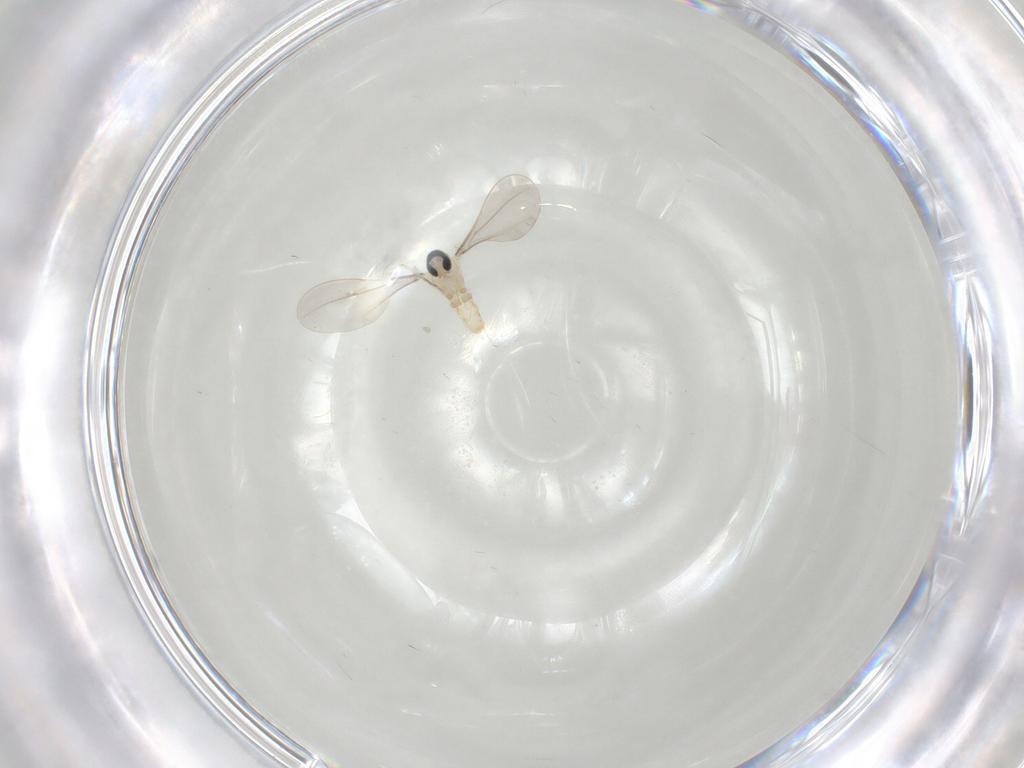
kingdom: Animalia
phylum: Arthropoda
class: Insecta
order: Diptera
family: Cecidomyiidae
